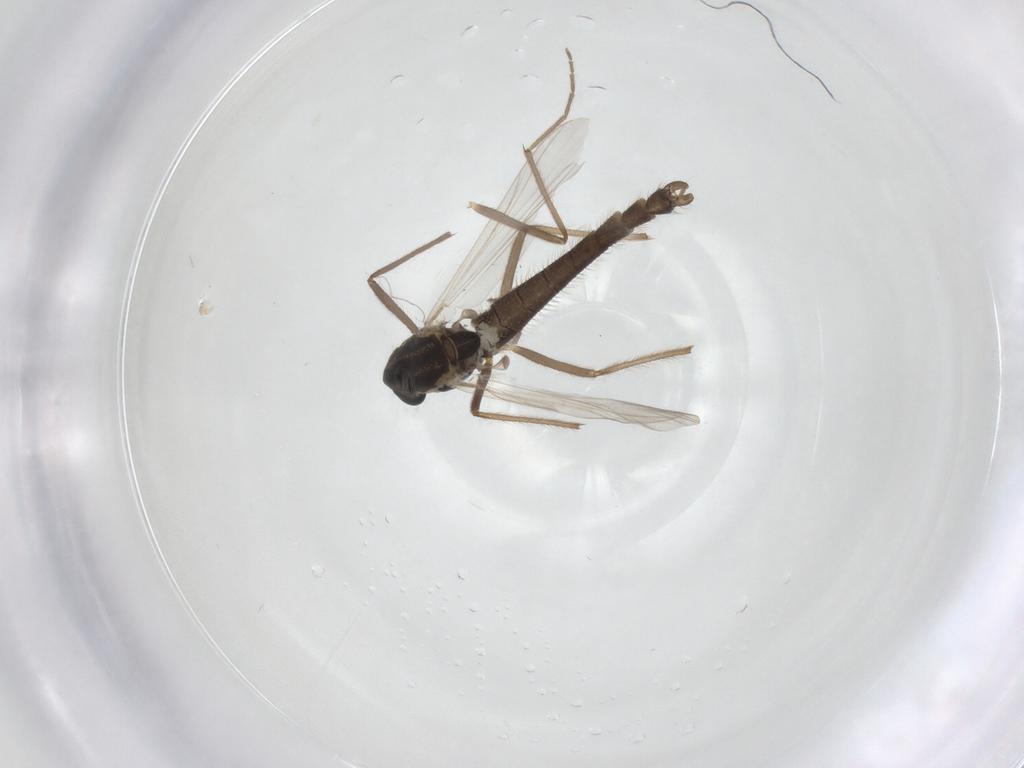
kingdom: Animalia
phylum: Arthropoda
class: Insecta
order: Diptera
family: Chironomidae
